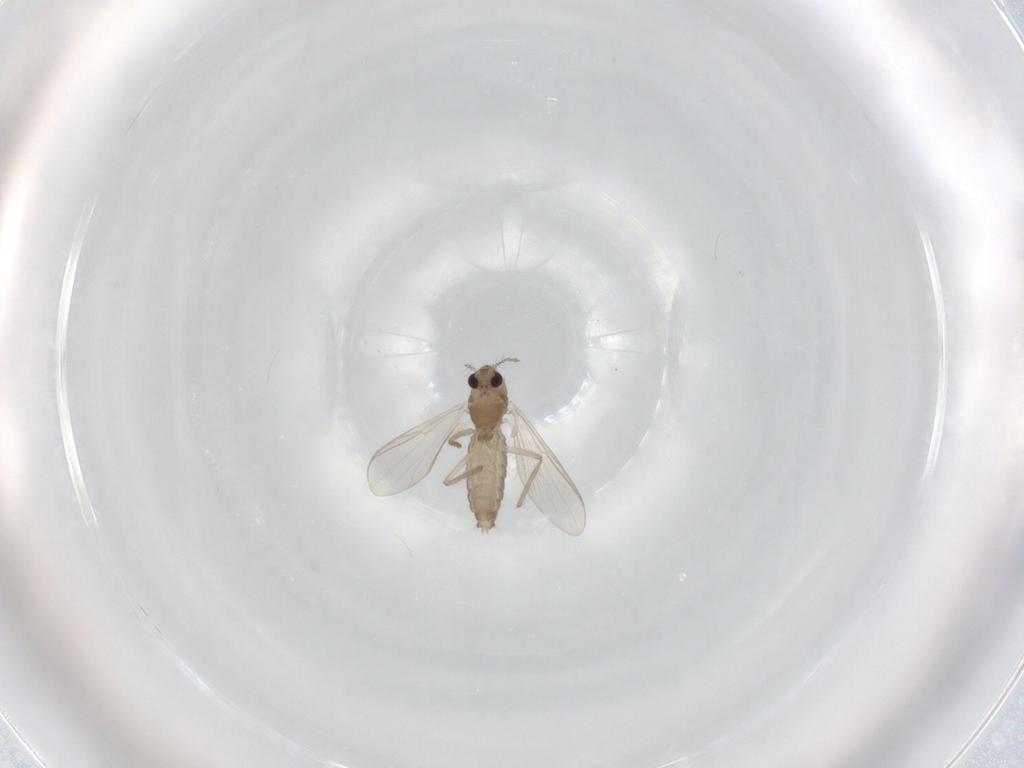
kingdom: Animalia
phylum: Arthropoda
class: Insecta
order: Diptera
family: Chironomidae
